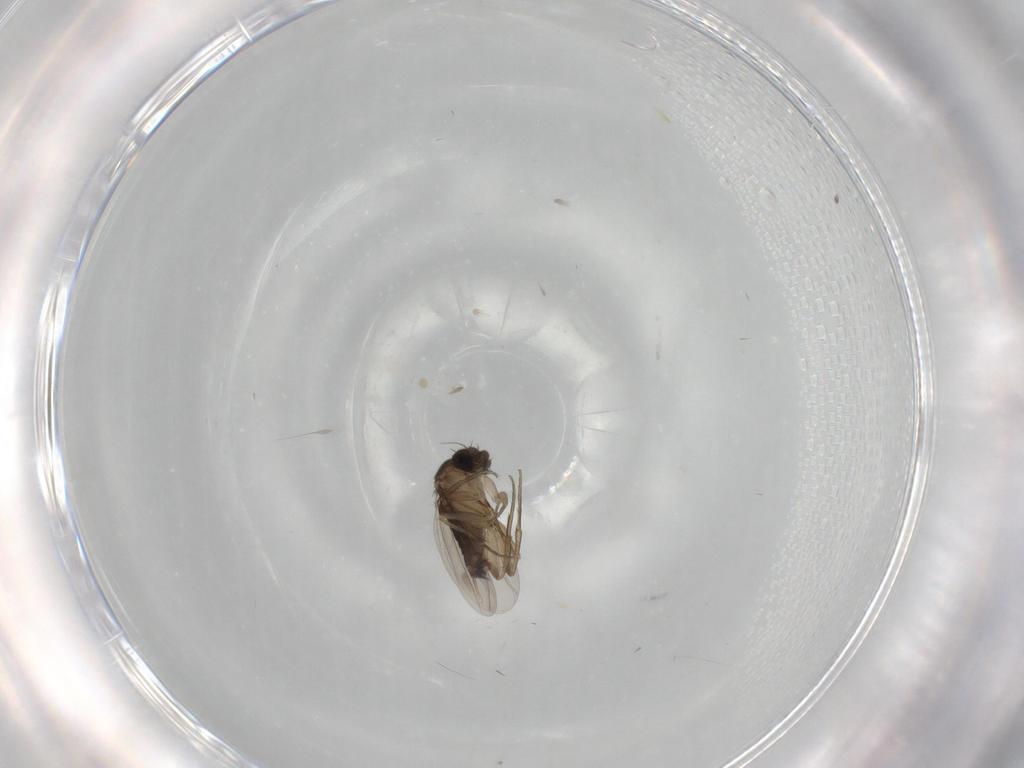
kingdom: Animalia
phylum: Arthropoda
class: Insecta
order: Diptera
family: Phoridae
